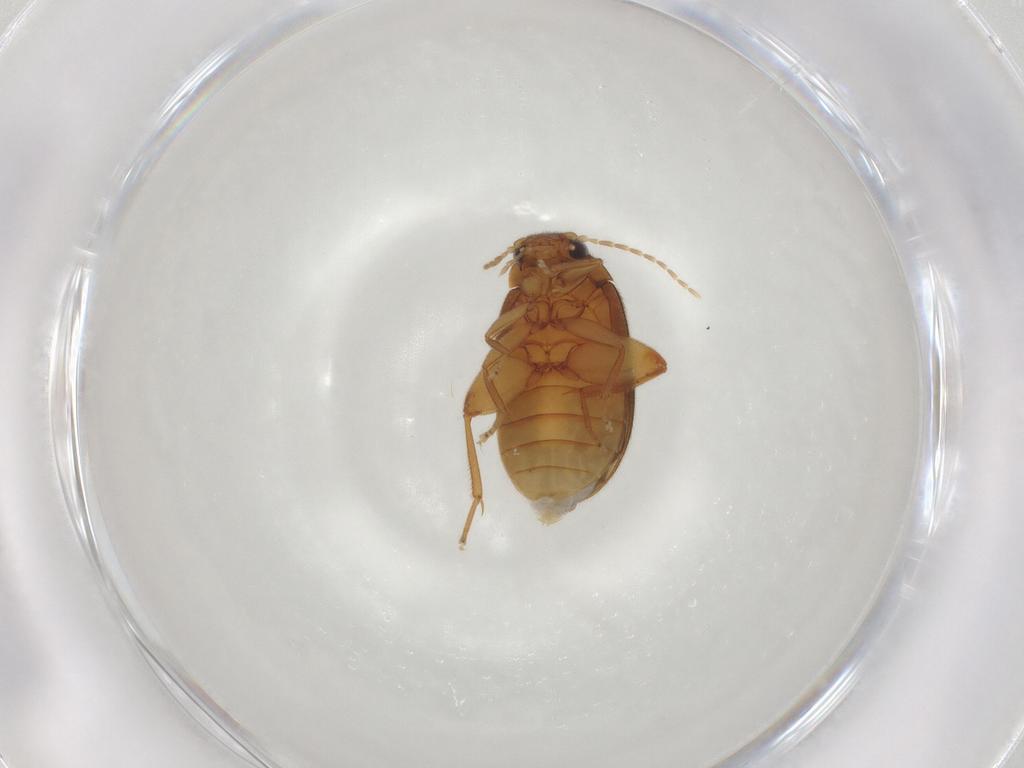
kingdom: Animalia
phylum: Arthropoda
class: Insecta
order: Coleoptera
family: Scirtidae
